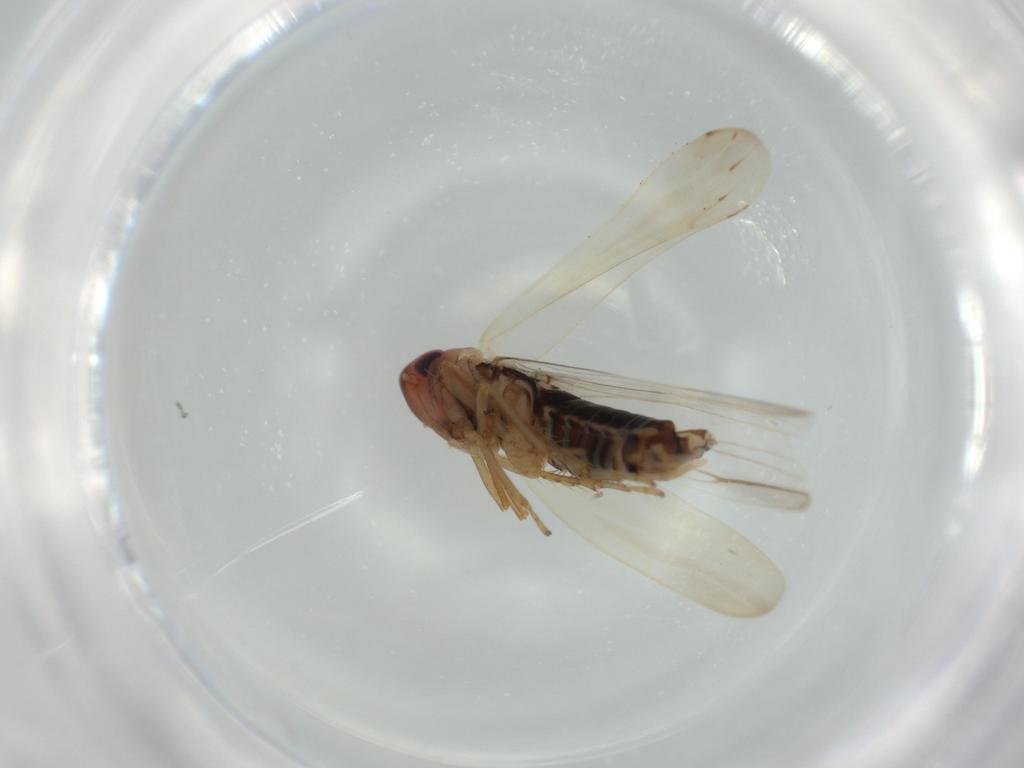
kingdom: Animalia
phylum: Arthropoda
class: Insecta
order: Hemiptera
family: Cicadellidae
